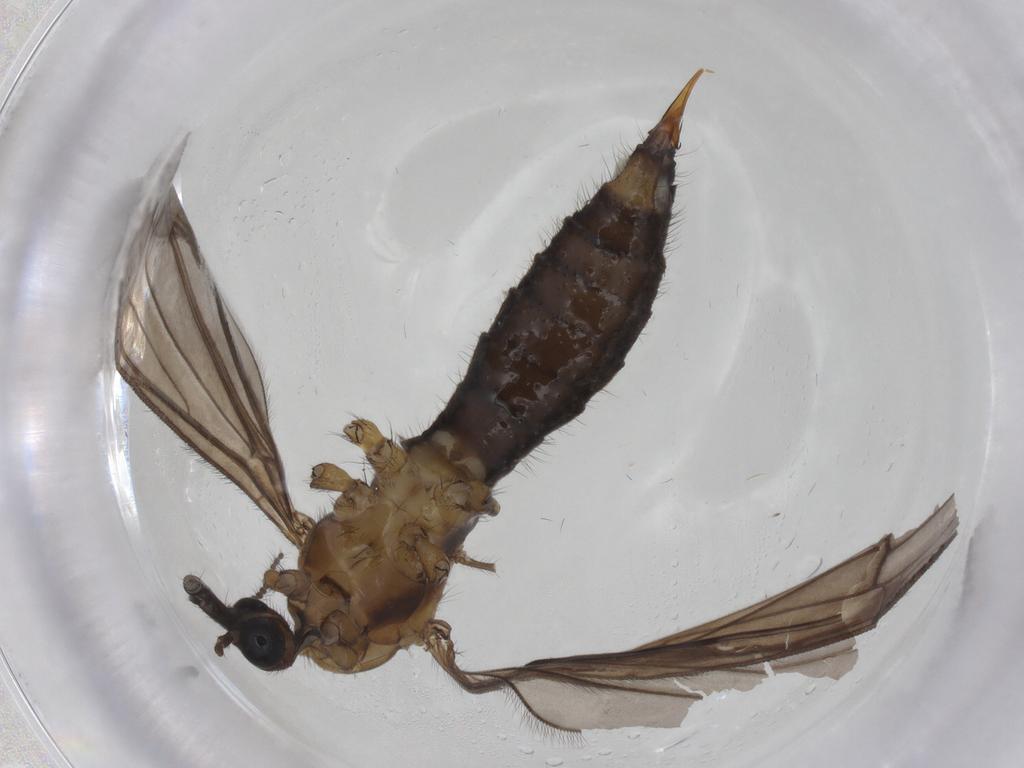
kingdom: Animalia
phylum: Arthropoda
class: Insecta
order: Diptera
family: Limoniidae
